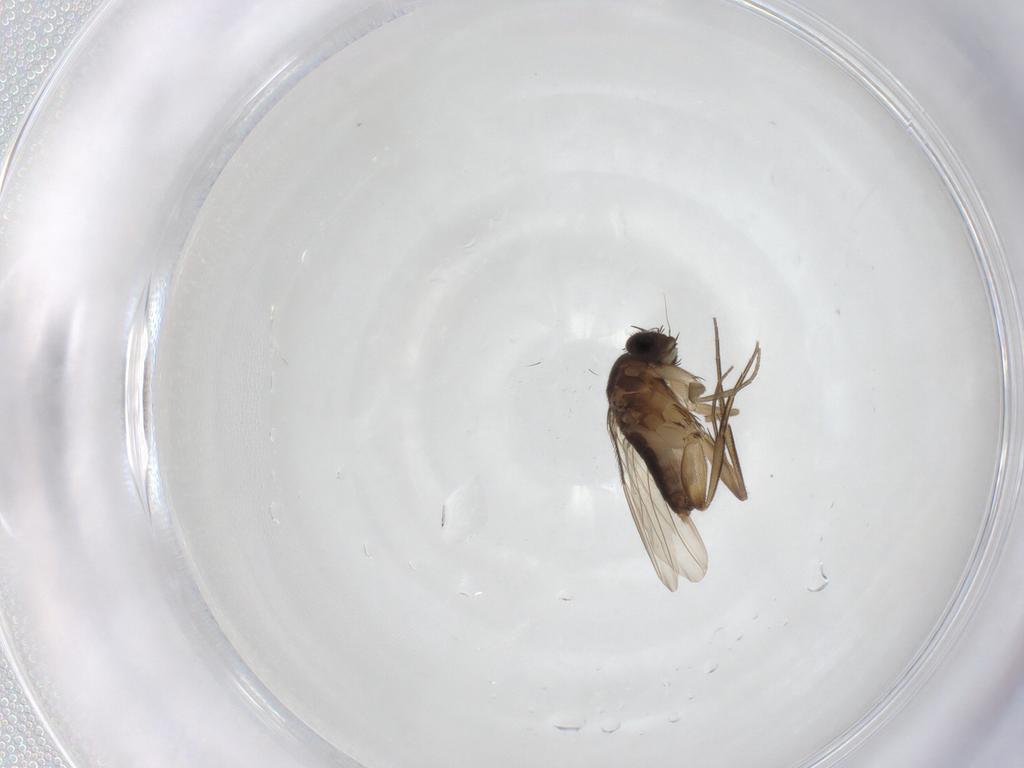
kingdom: Animalia
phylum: Arthropoda
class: Insecta
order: Diptera
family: Phoridae
